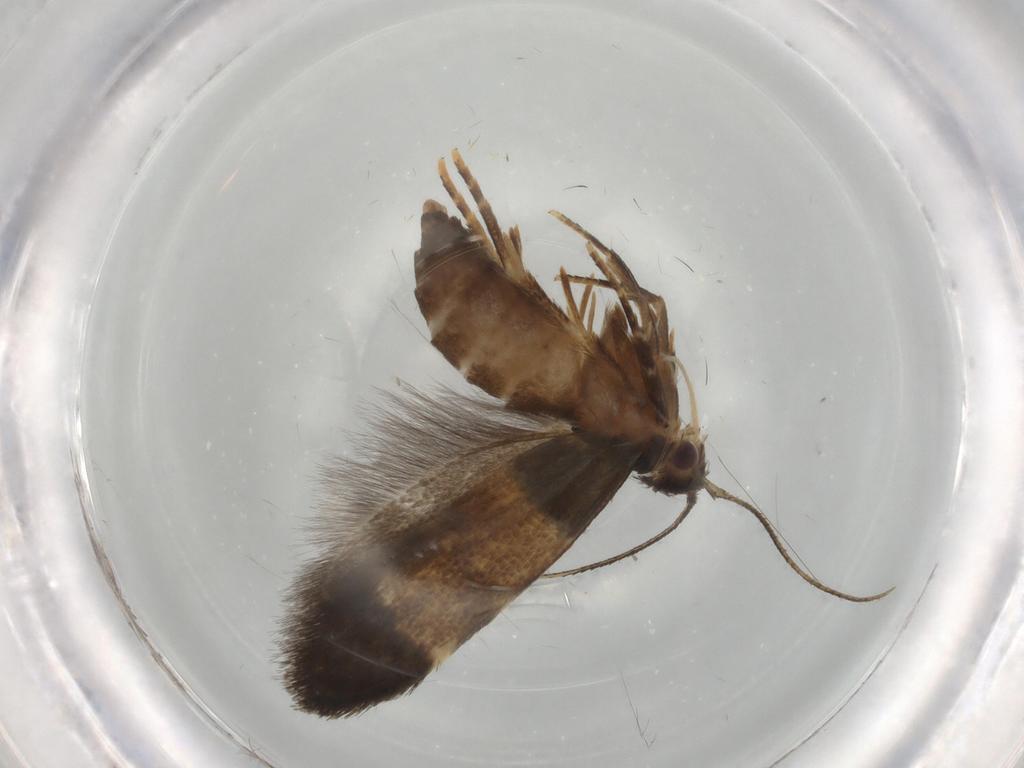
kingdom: Animalia
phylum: Arthropoda
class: Insecta
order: Lepidoptera
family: Cosmopterigidae
